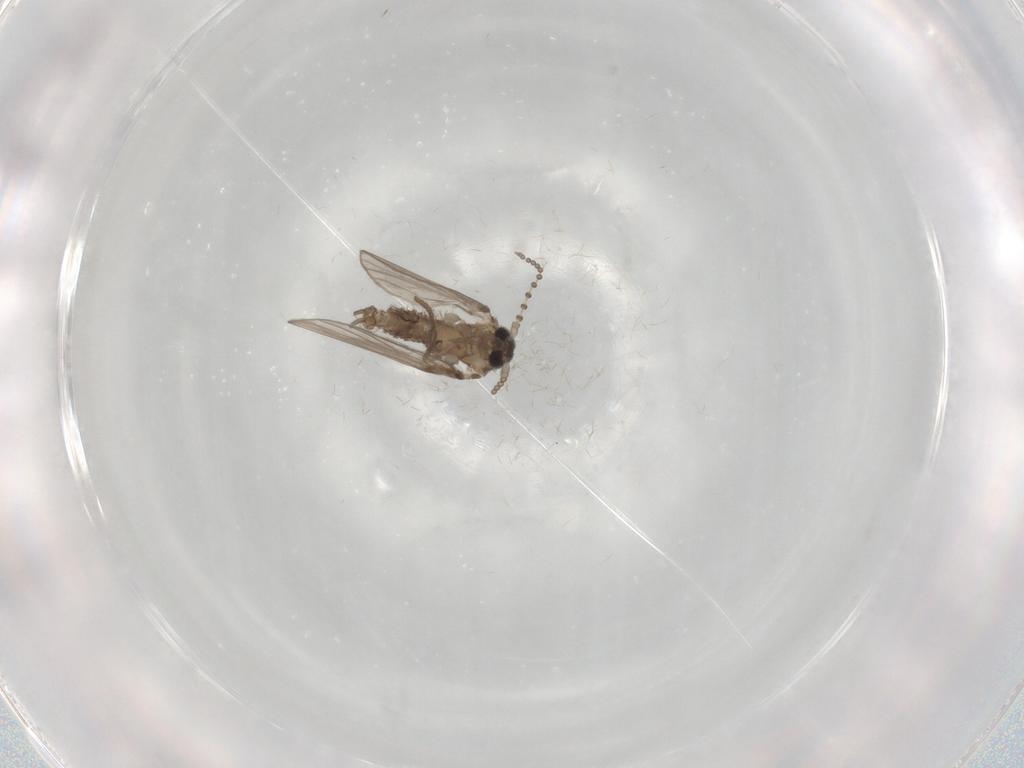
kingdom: Animalia
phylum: Arthropoda
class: Insecta
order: Diptera
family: Psychodidae
